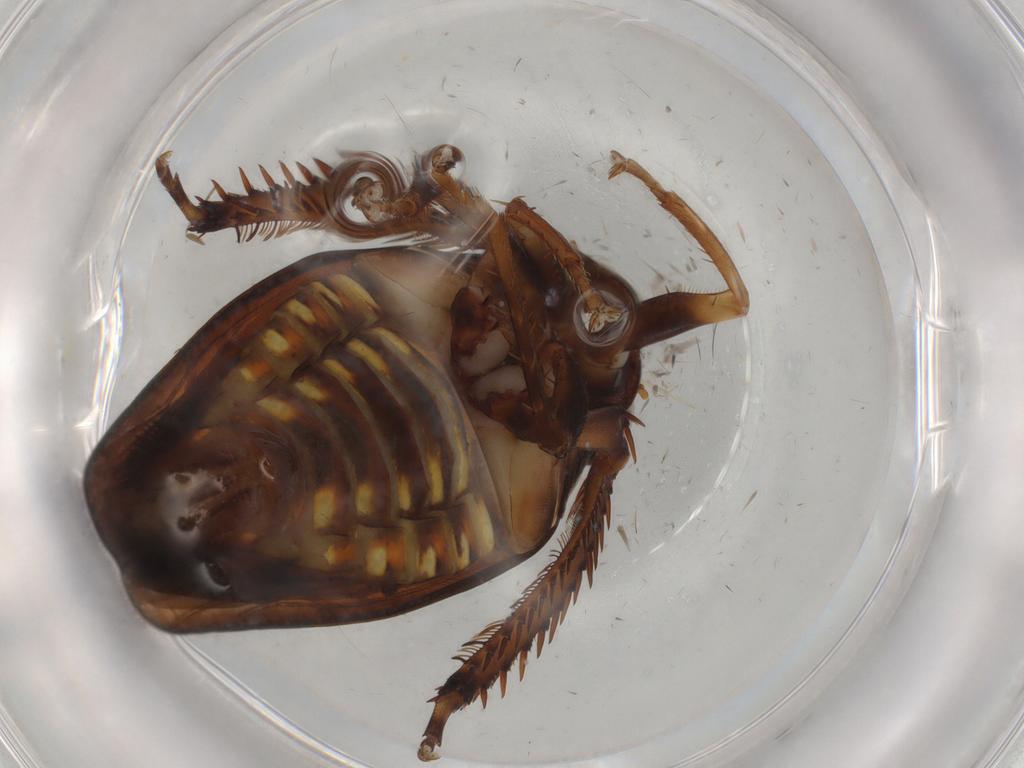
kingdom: Animalia
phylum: Arthropoda
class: Insecta
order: Hemiptera
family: Cicadellidae
